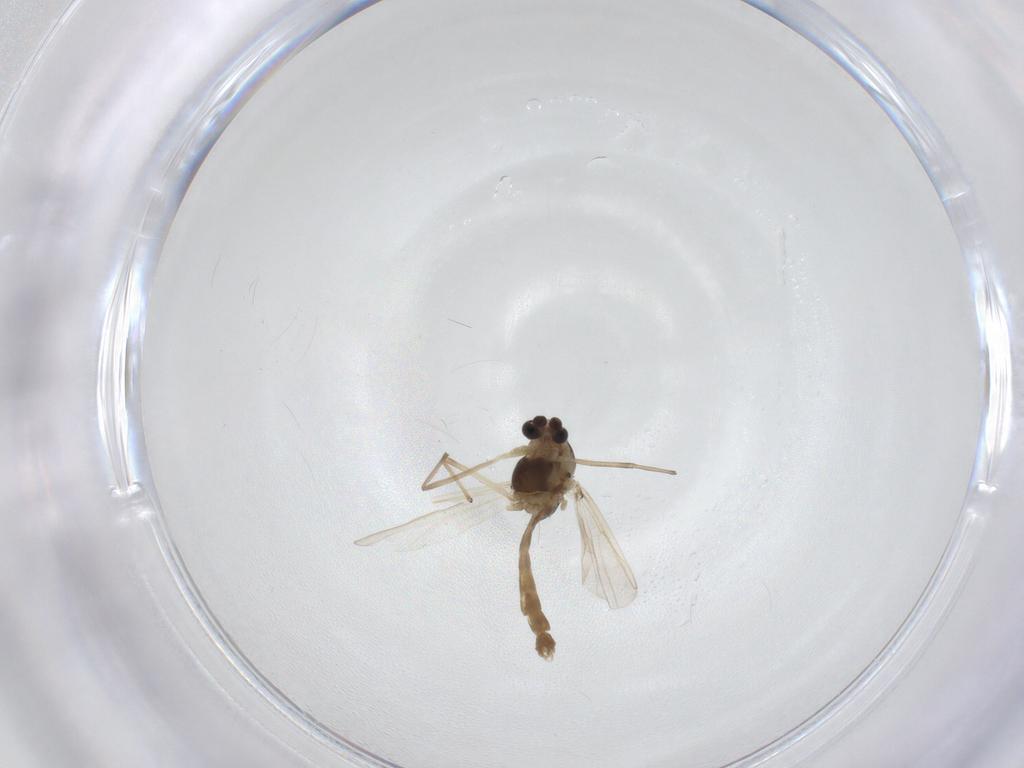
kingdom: Animalia
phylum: Arthropoda
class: Insecta
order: Diptera
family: Chironomidae
